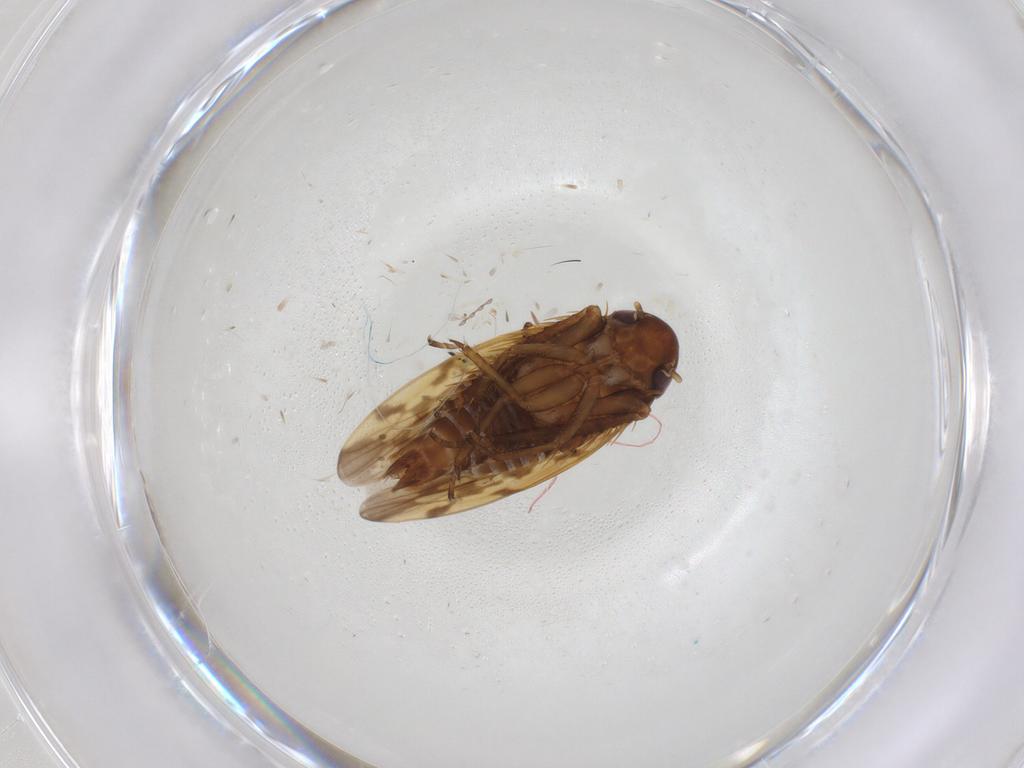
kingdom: Animalia
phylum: Arthropoda
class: Insecta
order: Hemiptera
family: Cicadellidae
